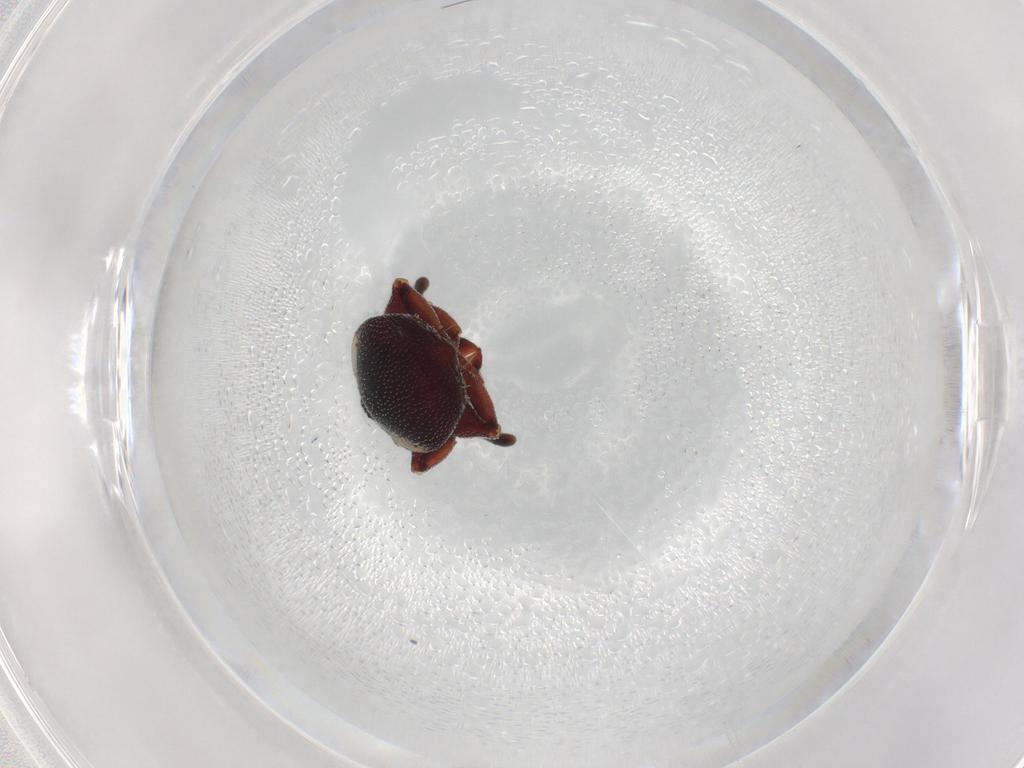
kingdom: Animalia
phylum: Arthropoda
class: Insecta
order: Hymenoptera
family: Formicidae
